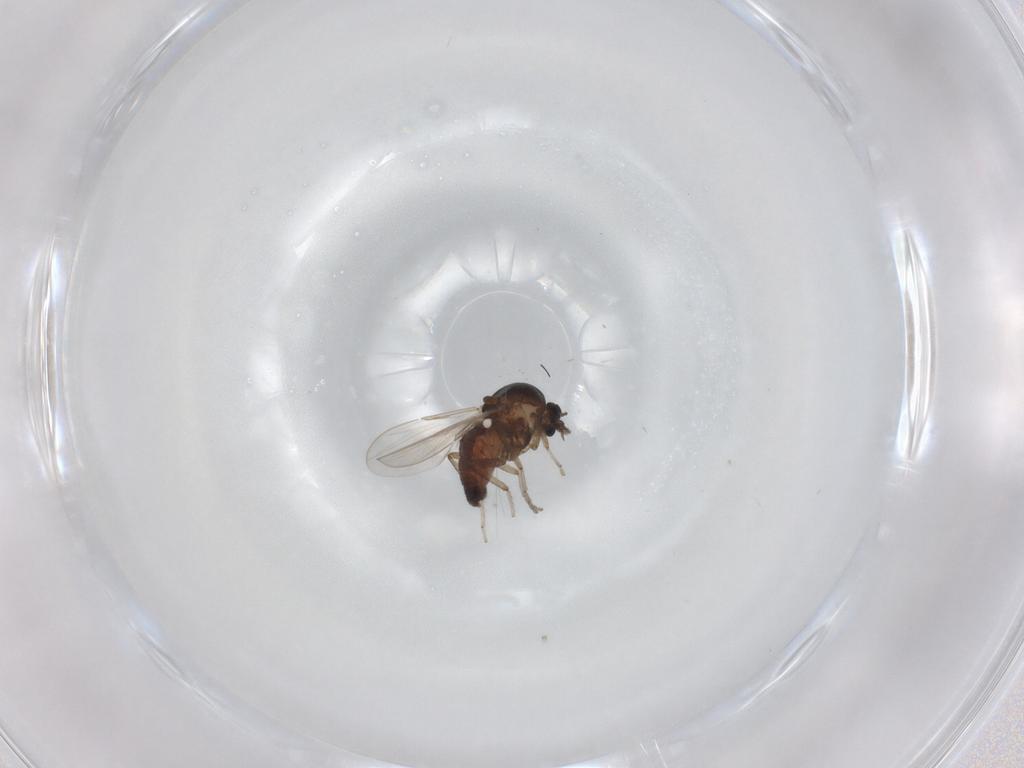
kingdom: Animalia
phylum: Arthropoda
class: Insecta
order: Diptera
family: Ceratopogonidae
